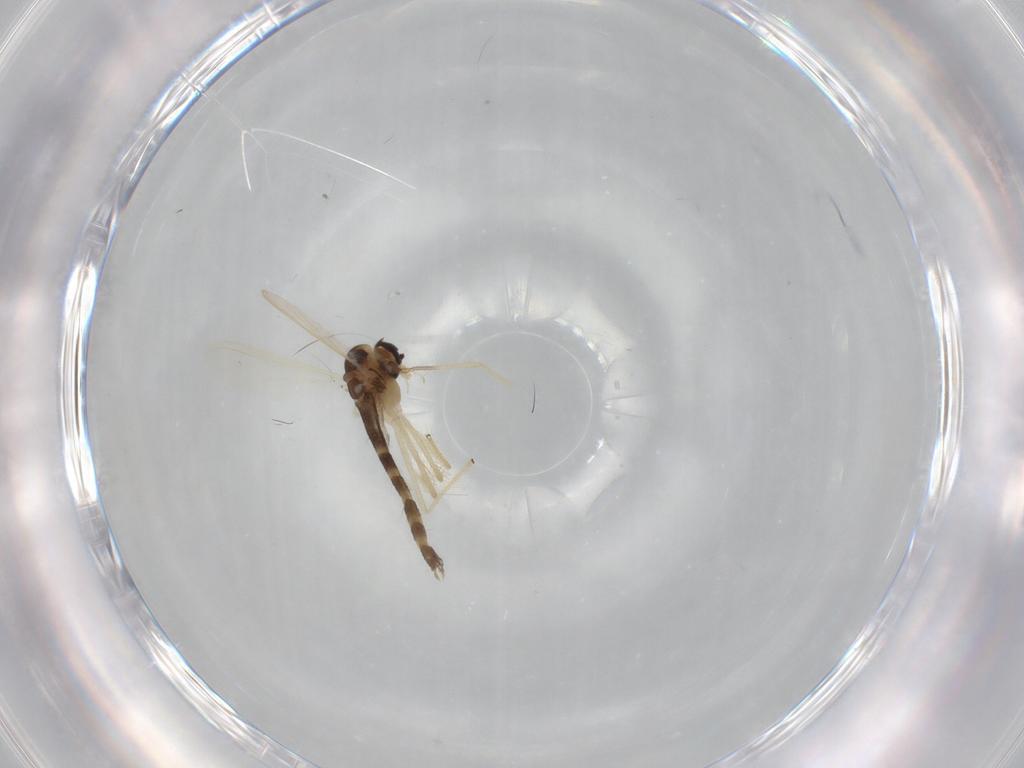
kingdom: Animalia
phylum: Arthropoda
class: Insecta
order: Diptera
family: Chironomidae
